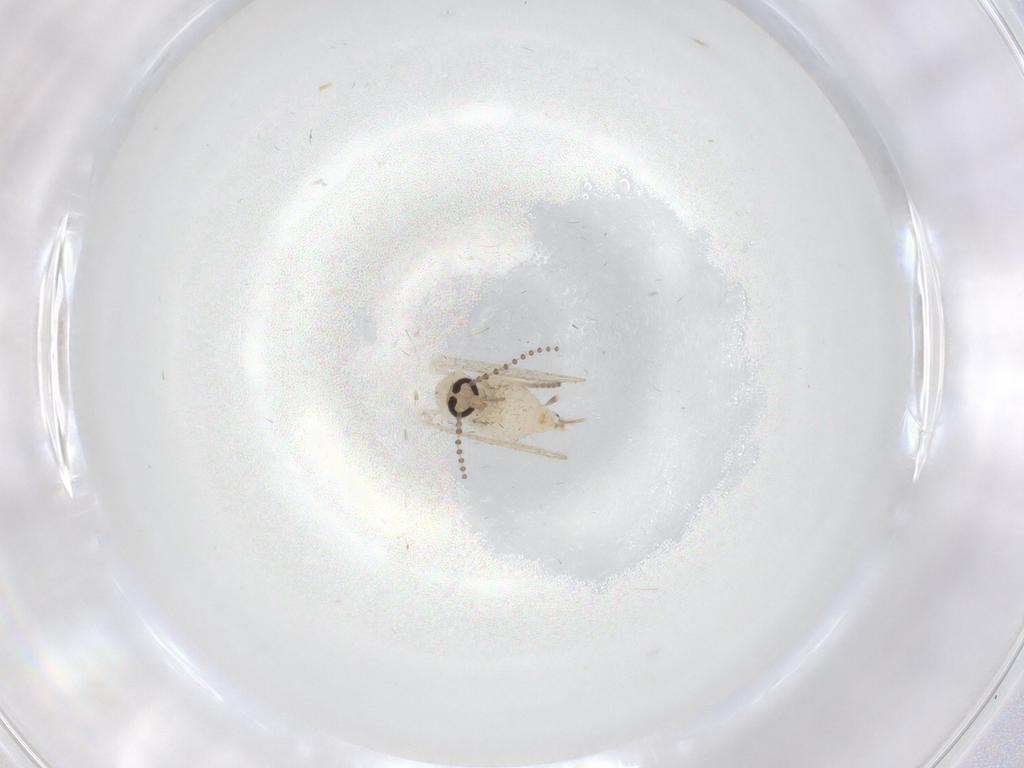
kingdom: Animalia
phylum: Arthropoda
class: Insecta
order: Diptera
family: Psychodidae
